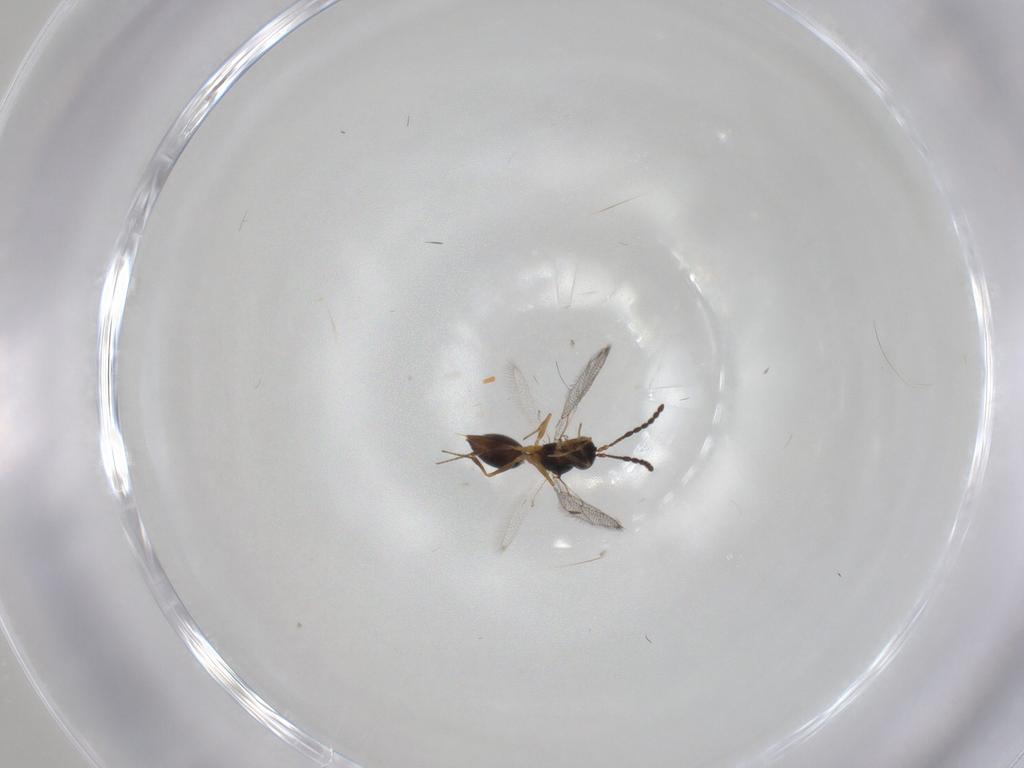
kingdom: Animalia
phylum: Arthropoda
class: Insecta
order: Hymenoptera
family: Figitidae
